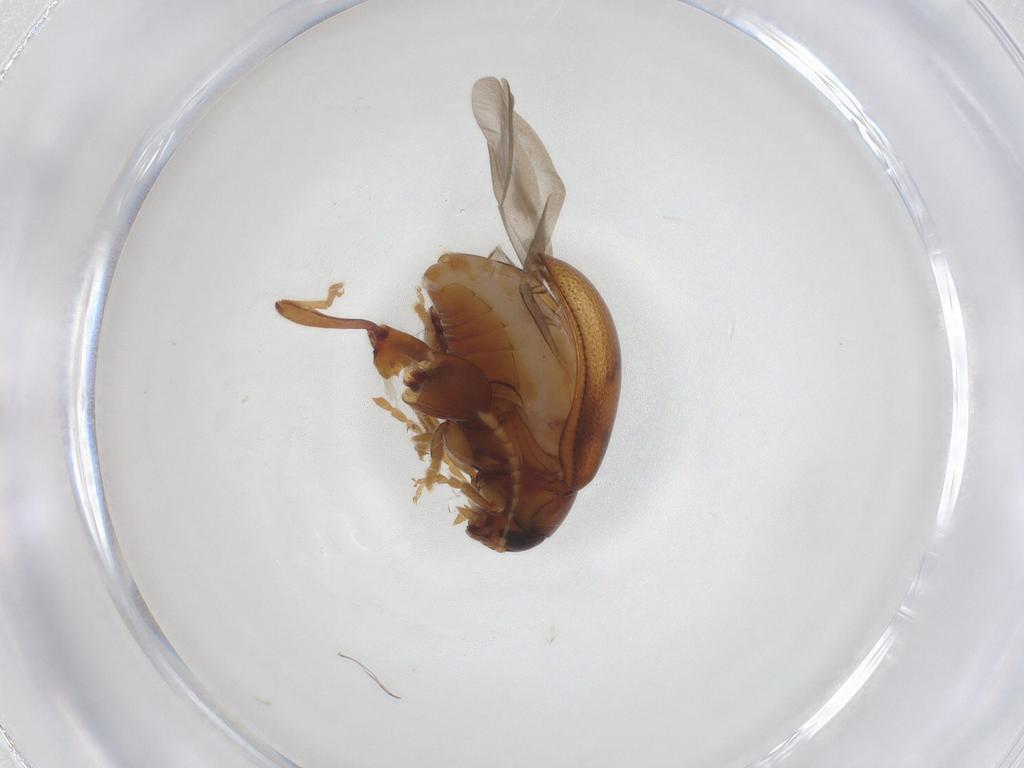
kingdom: Animalia
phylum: Arthropoda
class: Insecta
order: Coleoptera
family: Chrysomelidae
